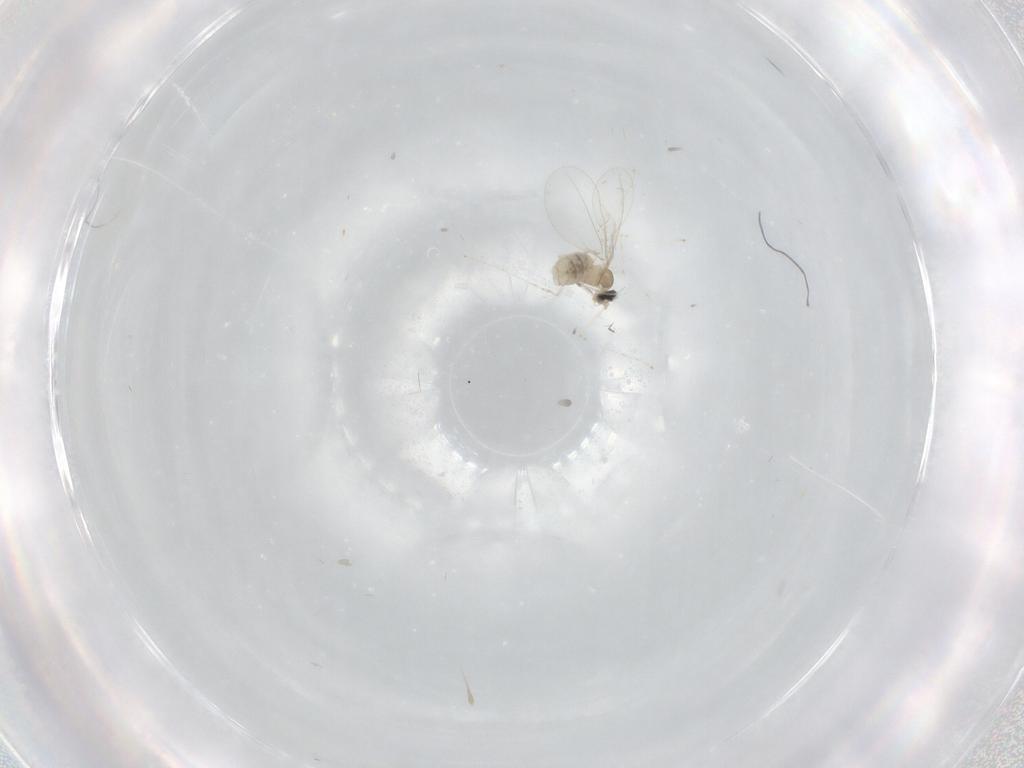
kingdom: Animalia
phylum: Arthropoda
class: Insecta
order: Diptera
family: Cecidomyiidae
